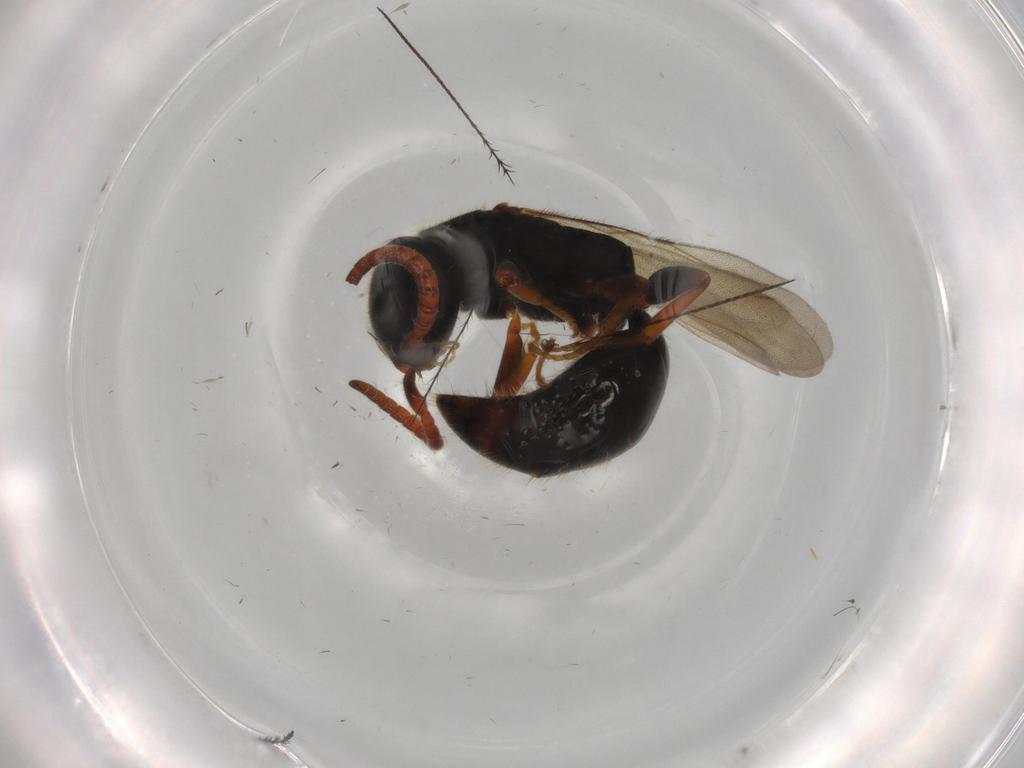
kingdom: Animalia
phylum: Arthropoda
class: Insecta
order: Hymenoptera
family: Bethylidae
